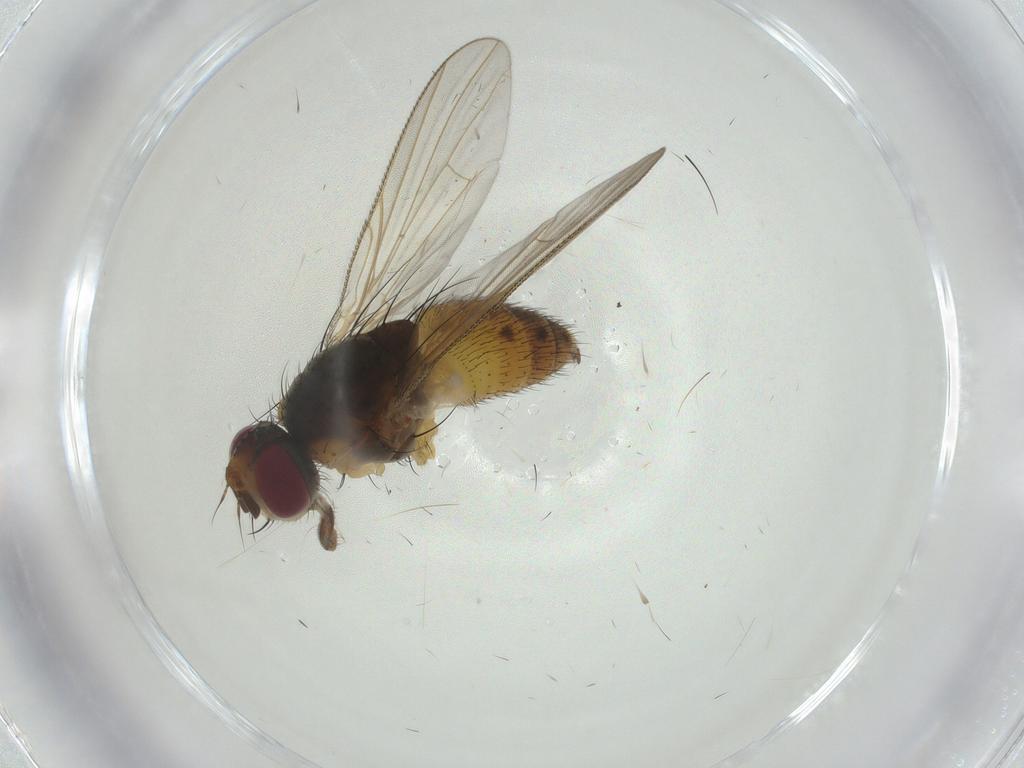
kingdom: Animalia
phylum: Arthropoda
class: Insecta
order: Diptera
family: Muscidae
